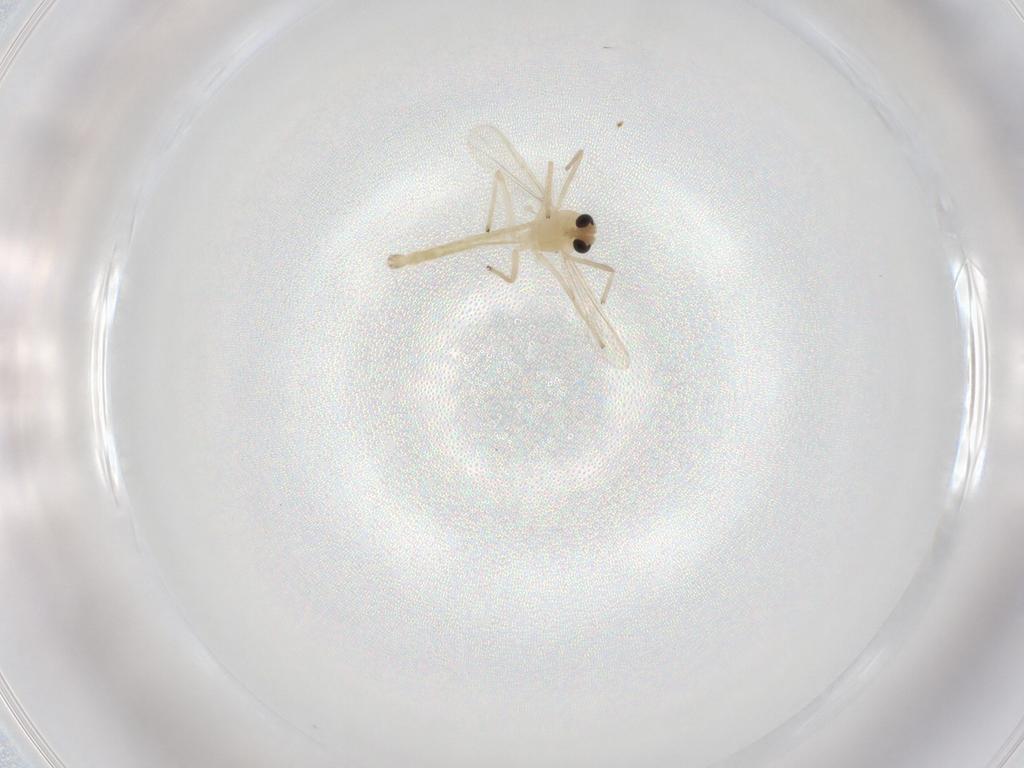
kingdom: Animalia
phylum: Arthropoda
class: Insecta
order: Diptera
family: Chironomidae
